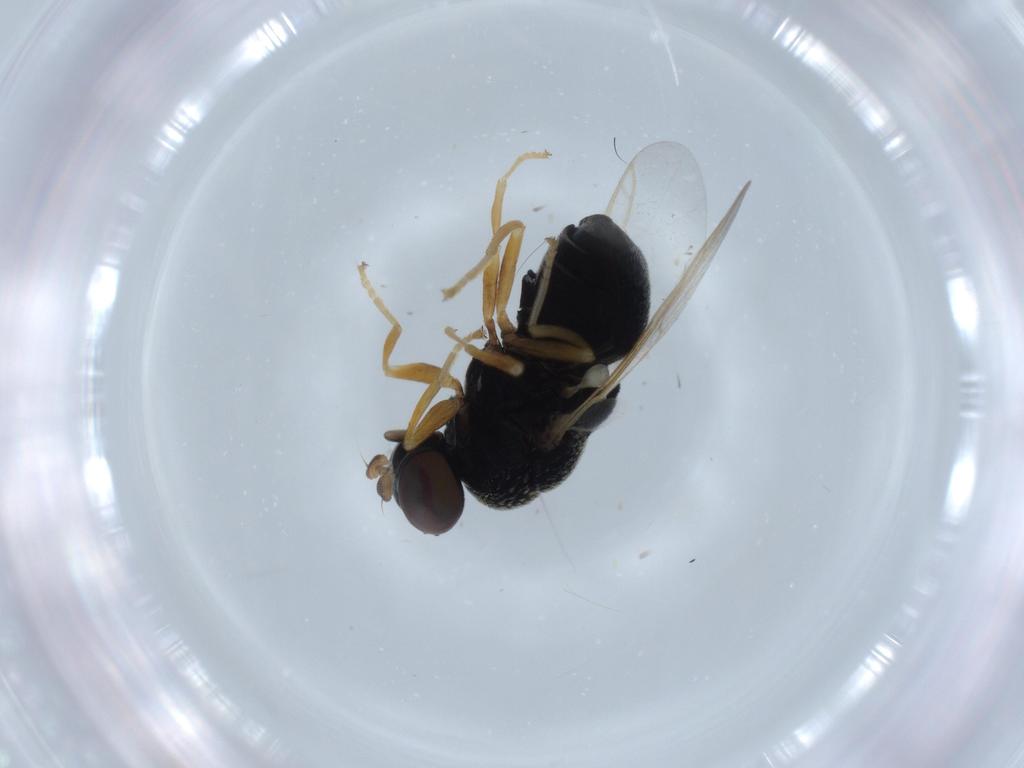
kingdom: Animalia
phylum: Arthropoda
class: Insecta
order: Diptera
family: Stratiomyidae
